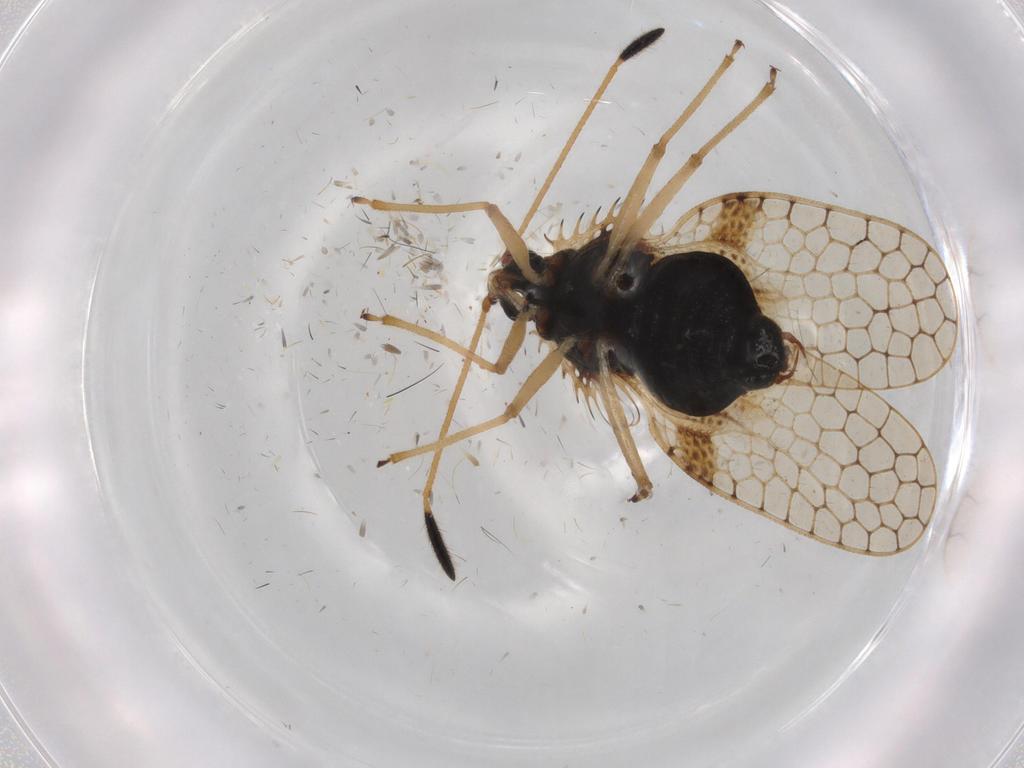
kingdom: Animalia
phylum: Arthropoda
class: Insecta
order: Hemiptera
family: Tingidae
